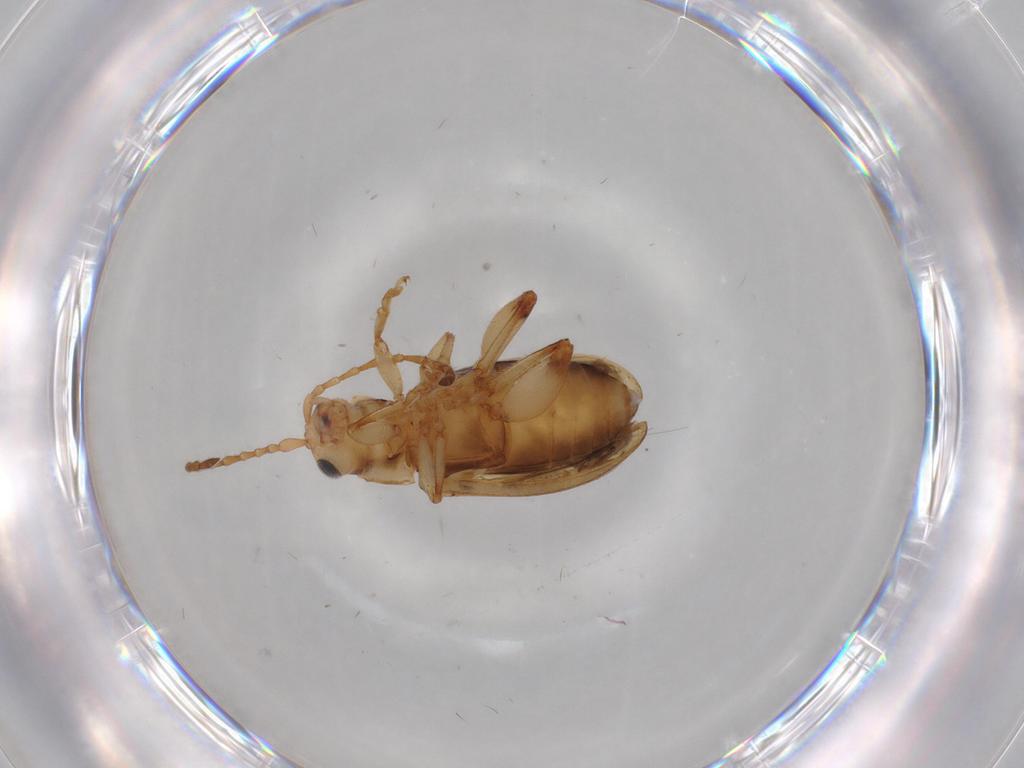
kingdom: Animalia
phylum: Arthropoda
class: Insecta
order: Coleoptera
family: Chrysomelidae
